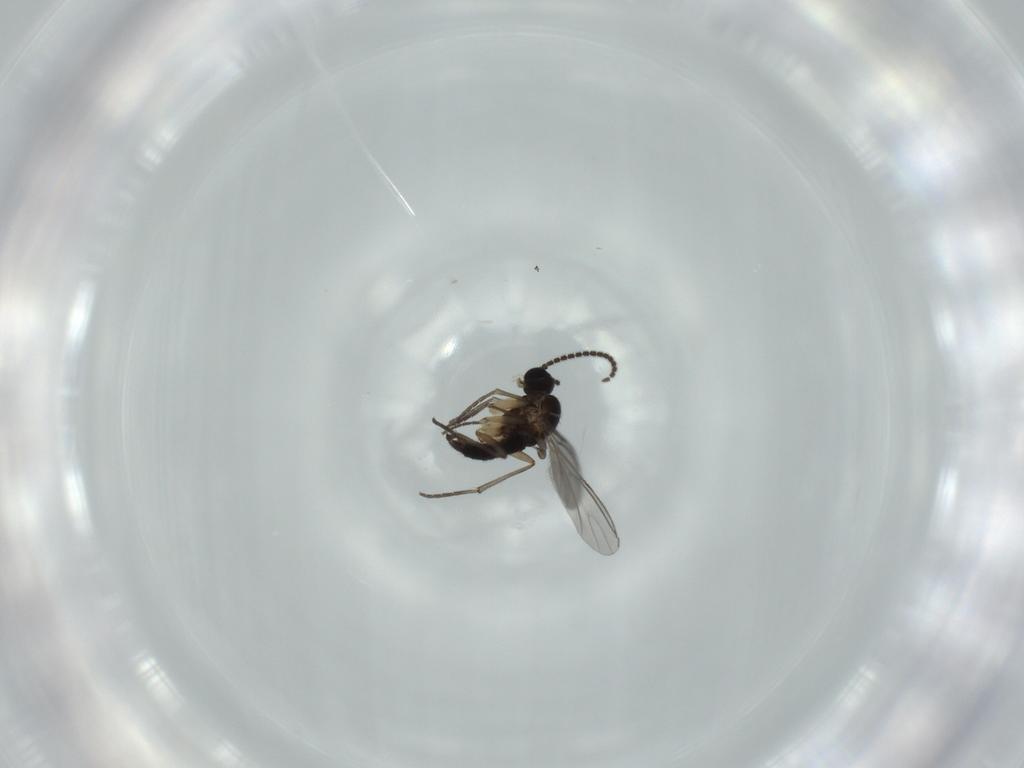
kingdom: Animalia
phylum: Arthropoda
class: Insecta
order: Diptera
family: Sciaridae
